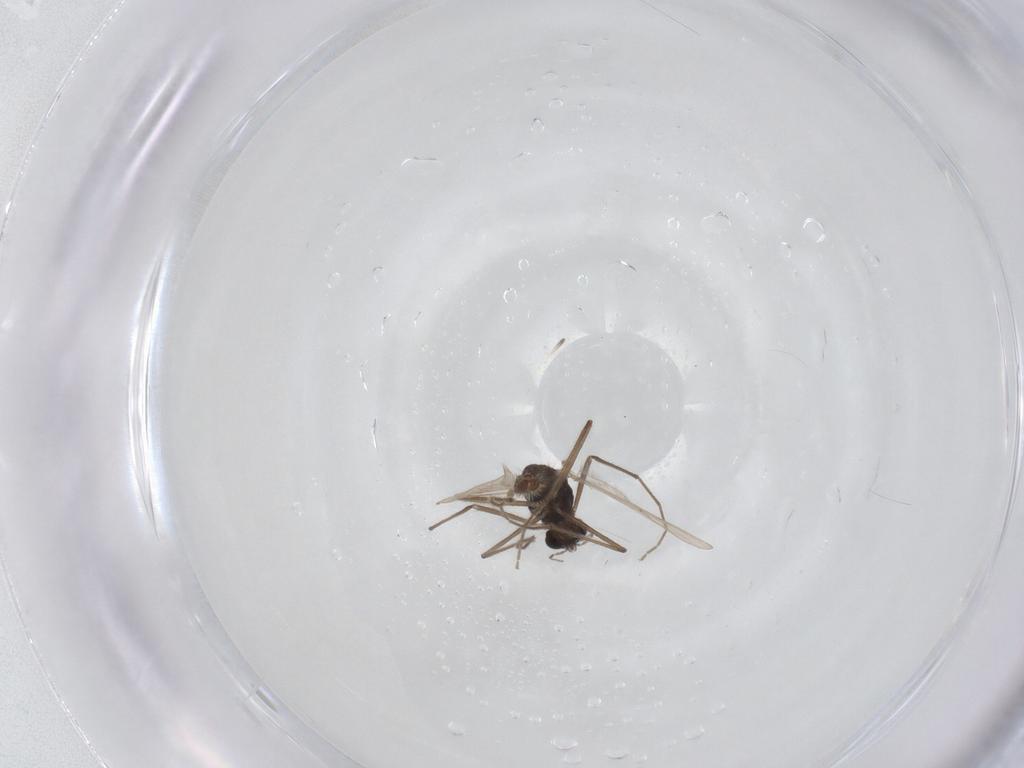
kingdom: Animalia
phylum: Arthropoda
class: Insecta
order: Diptera
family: Chironomidae
